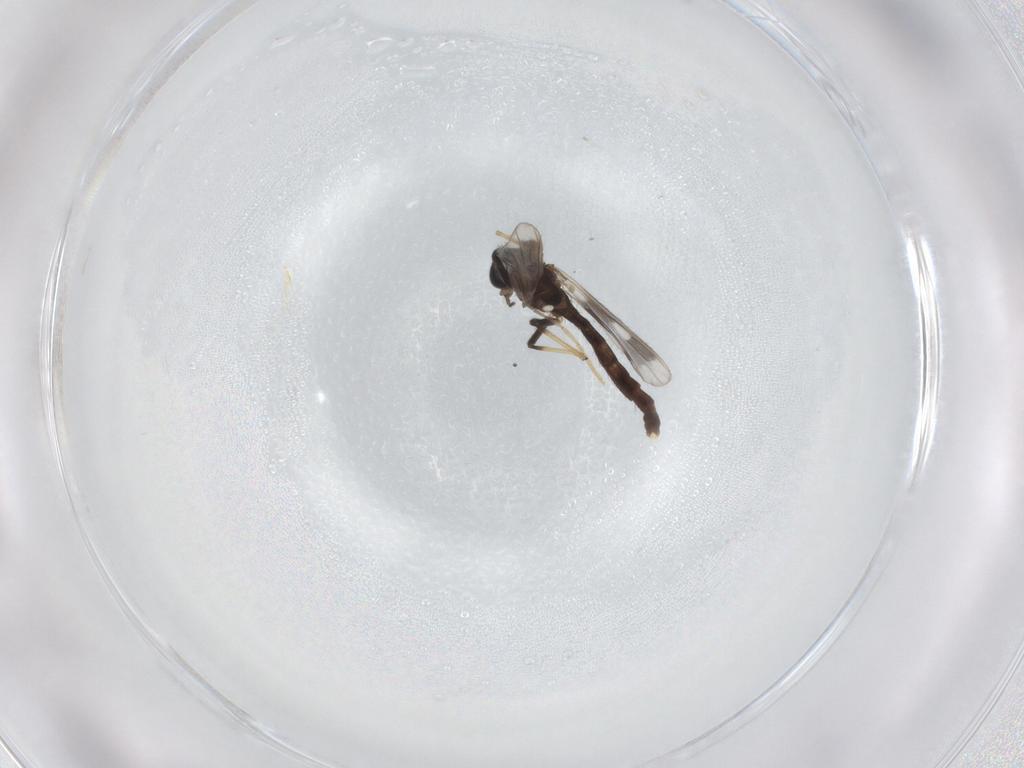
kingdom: Animalia
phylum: Arthropoda
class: Insecta
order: Diptera
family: Chironomidae
